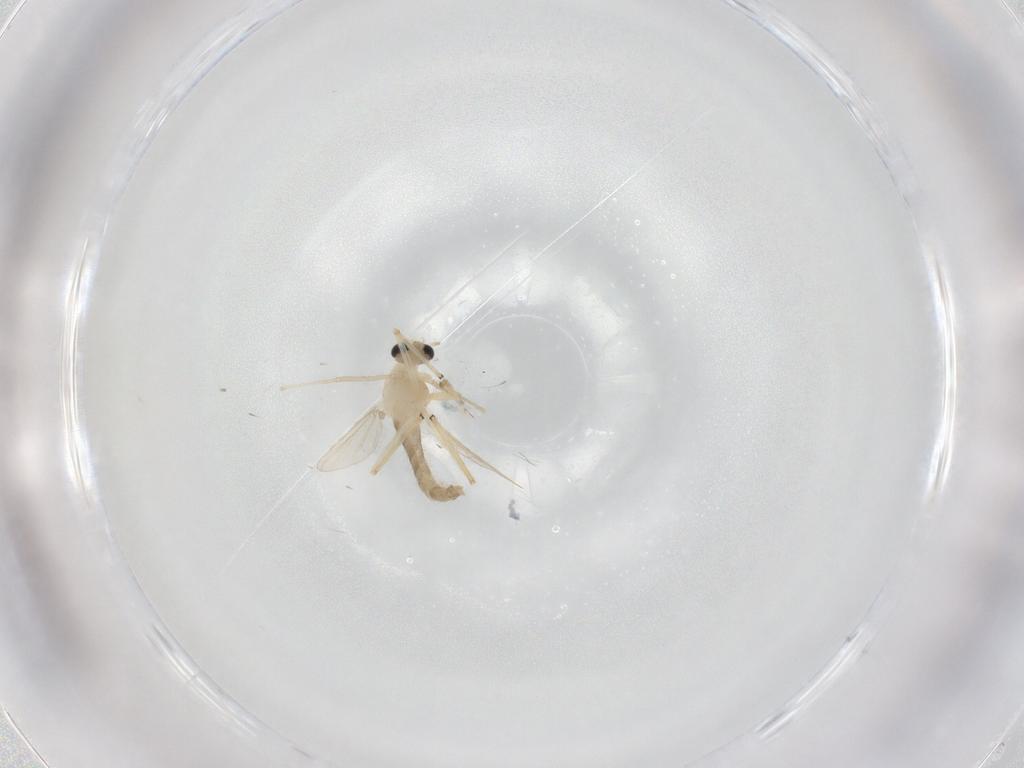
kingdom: Animalia
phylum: Arthropoda
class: Insecta
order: Diptera
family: Chironomidae
